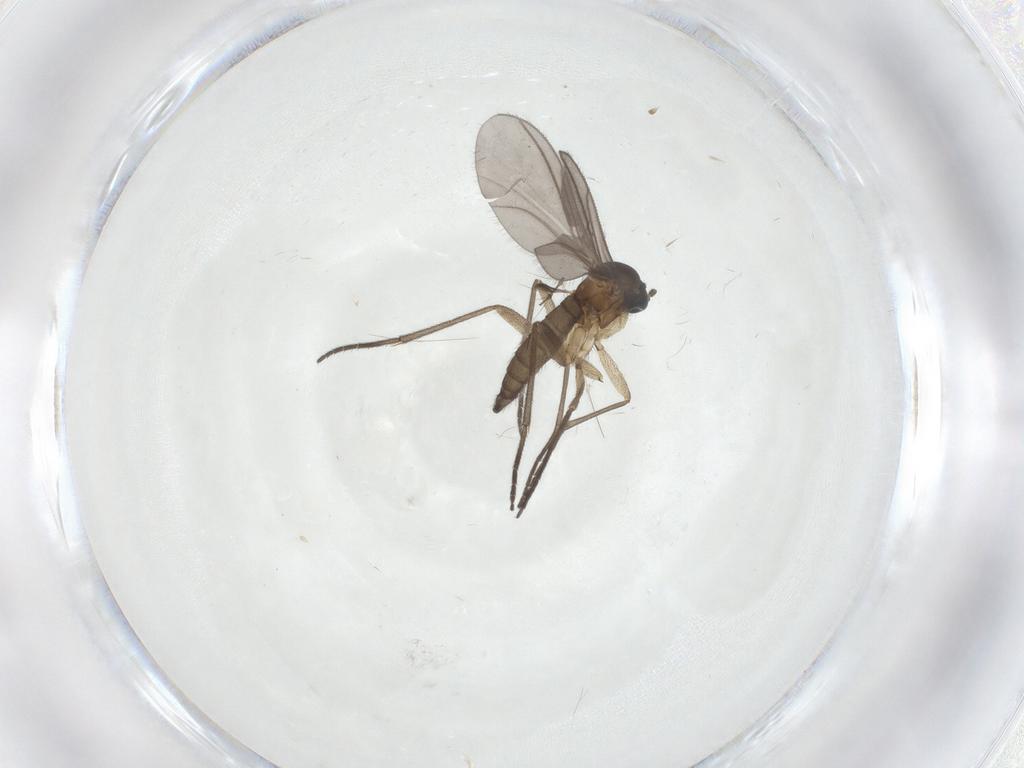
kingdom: Animalia
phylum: Arthropoda
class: Insecta
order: Diptera
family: Sciaridae
